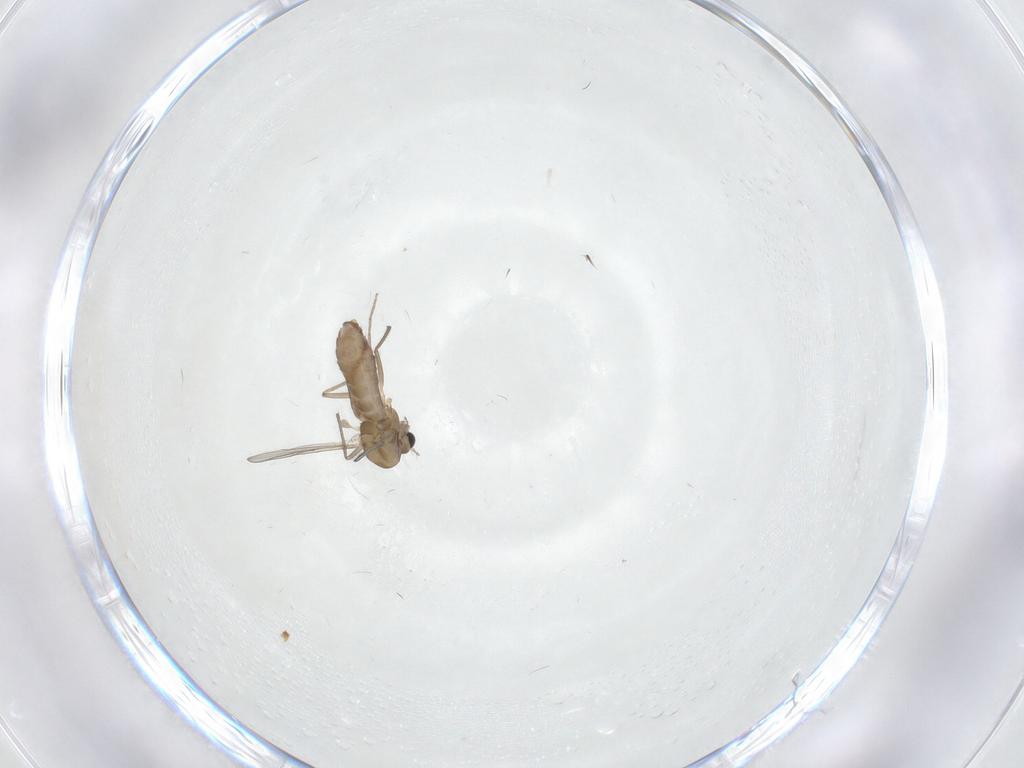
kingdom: Animalia
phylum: Arthropoda
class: Insecta
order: Diptera
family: Chironomidae
